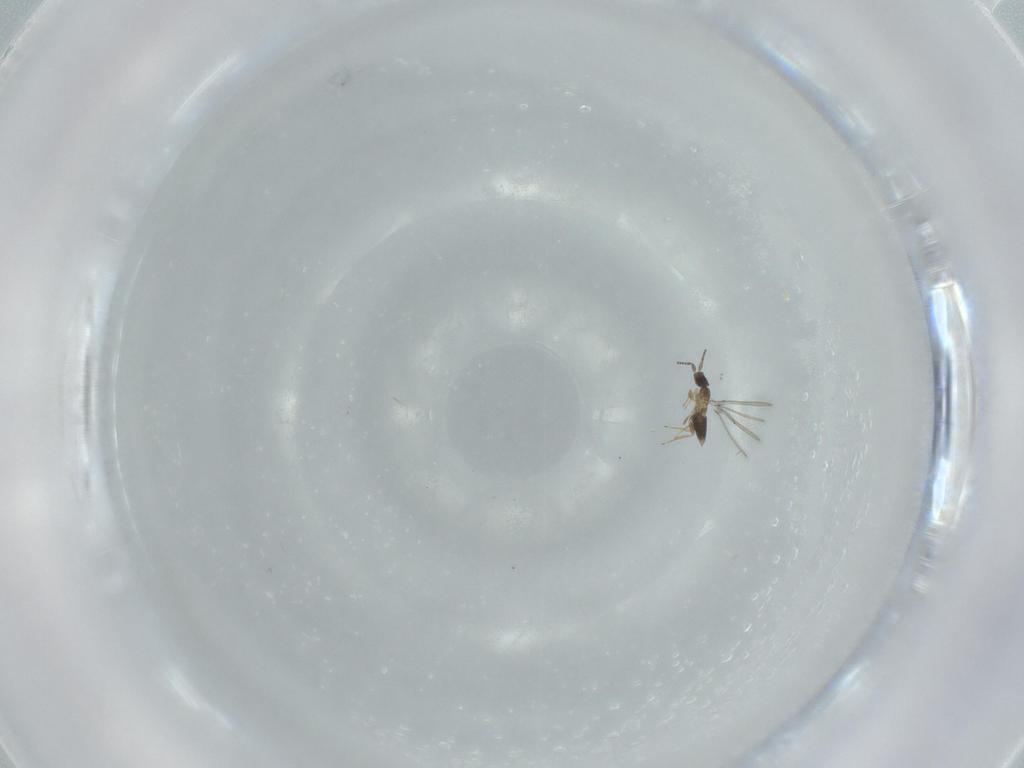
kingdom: Animalia
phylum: Arthropoda
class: Insecta
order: Hymenoptera
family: Mymaridae
